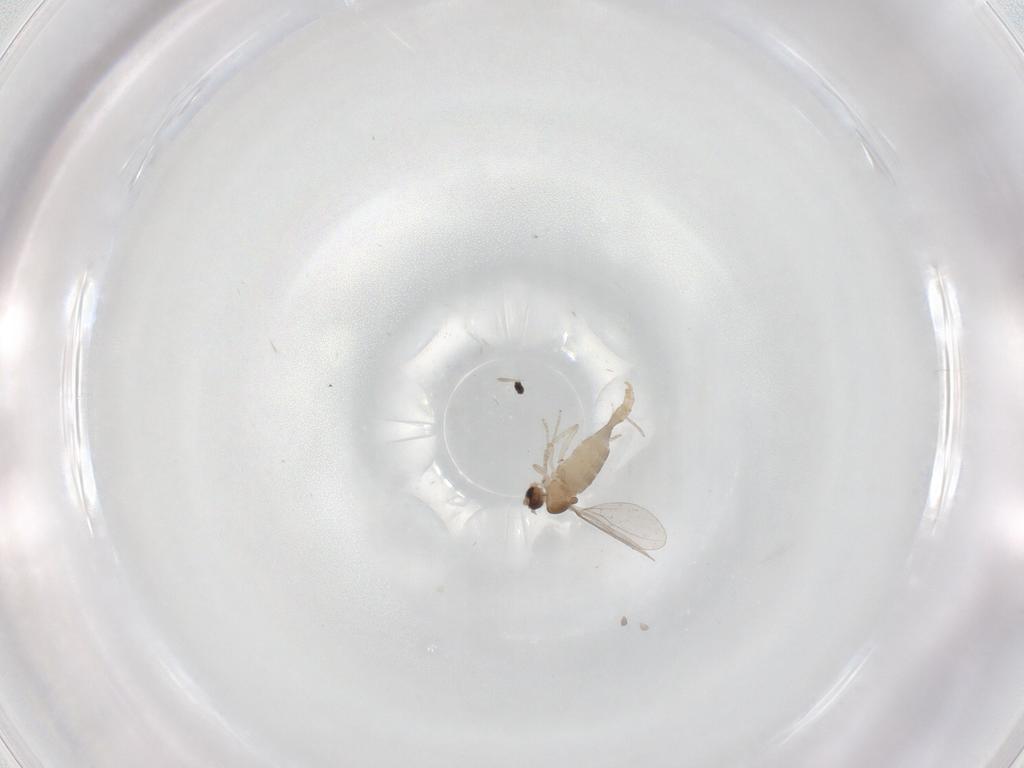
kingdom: Animalia
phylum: Arthropoda
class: Insecta
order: Diptera
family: Cecidomyiidae
